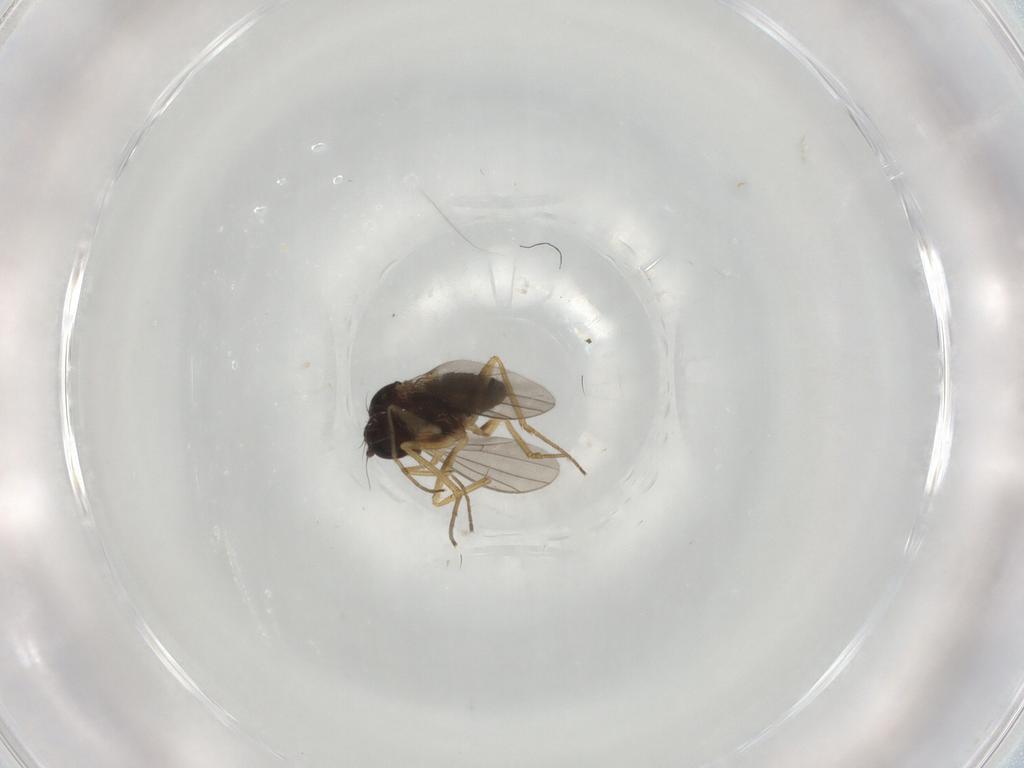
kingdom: Animalia
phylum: Arthropoda
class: Insecta
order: Diptera
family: Dolichopodidae
